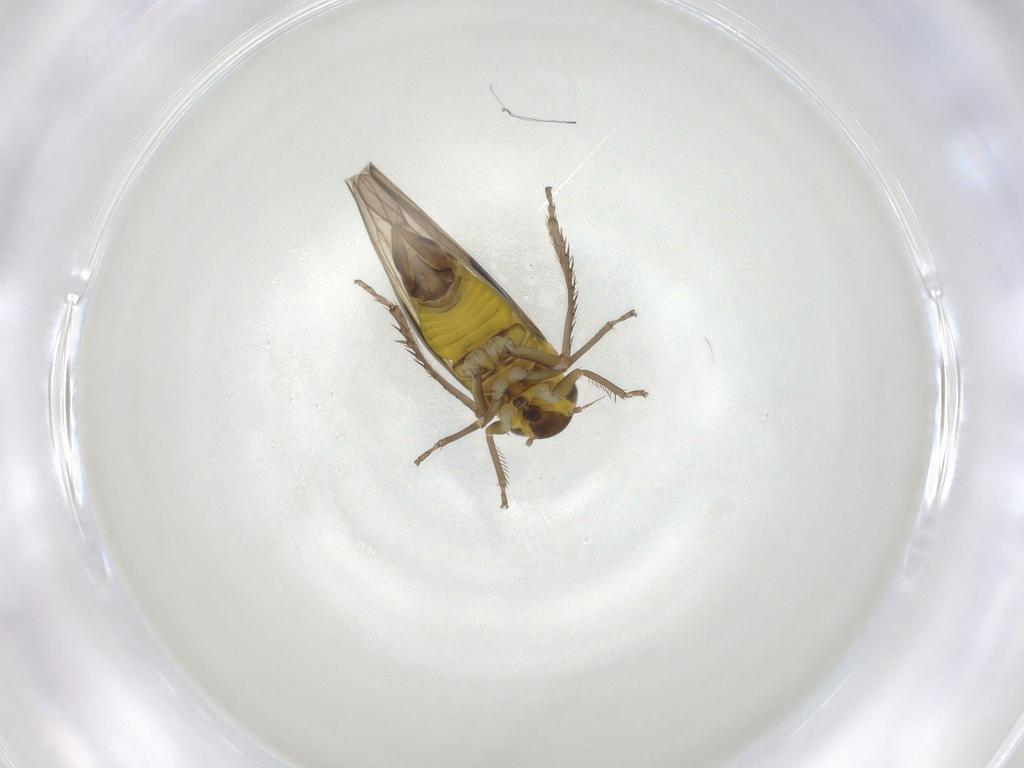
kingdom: Animalia
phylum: Arthropoda
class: Insecta
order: Hemiptera
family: Cicadellidae
